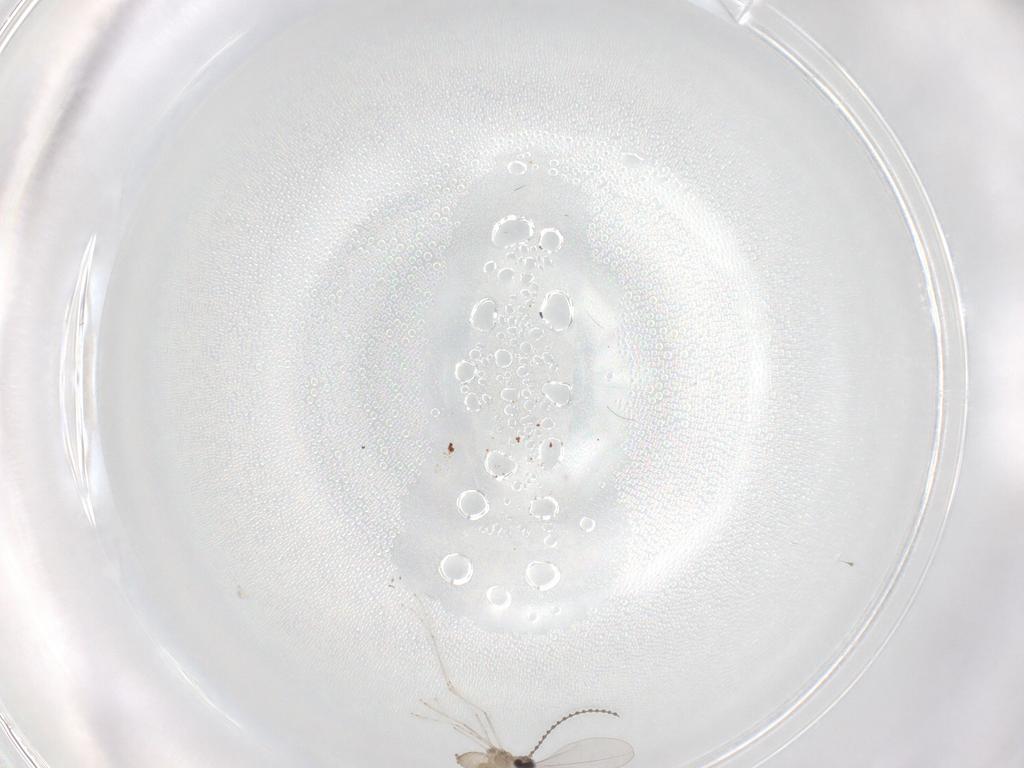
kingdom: Animalia
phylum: Arthropoda
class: Insecta
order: Diptera
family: Cecidomyiidae
